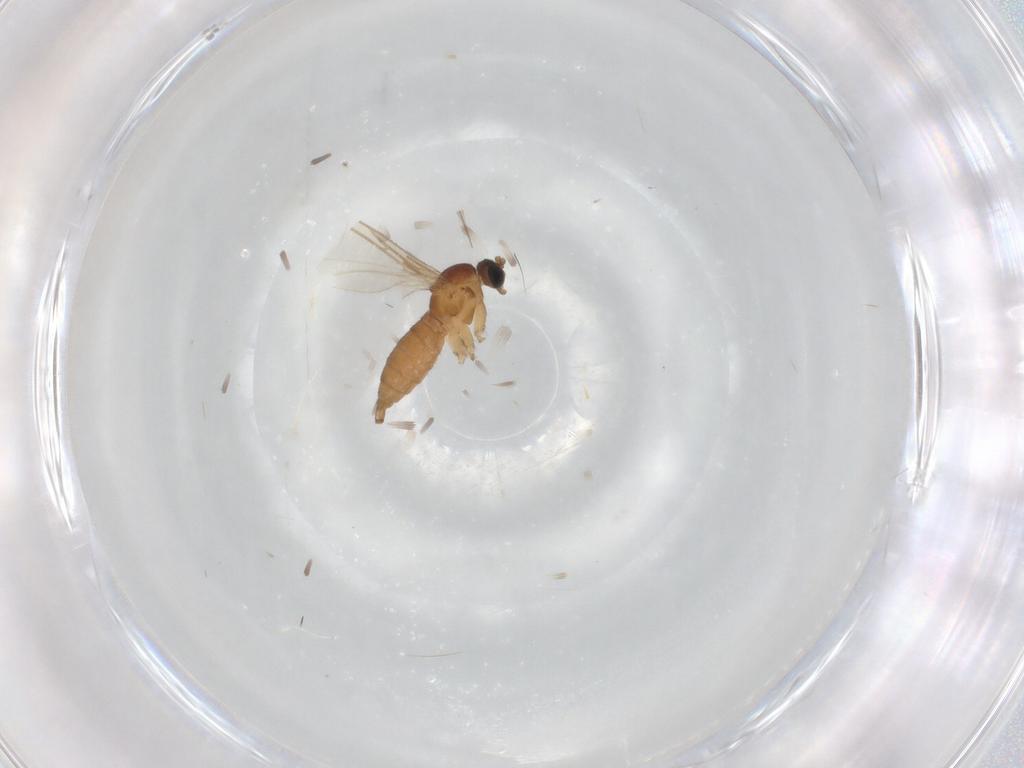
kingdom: Animalia
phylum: Arthropoda
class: Insecta
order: Diptera
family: Sciaridae
